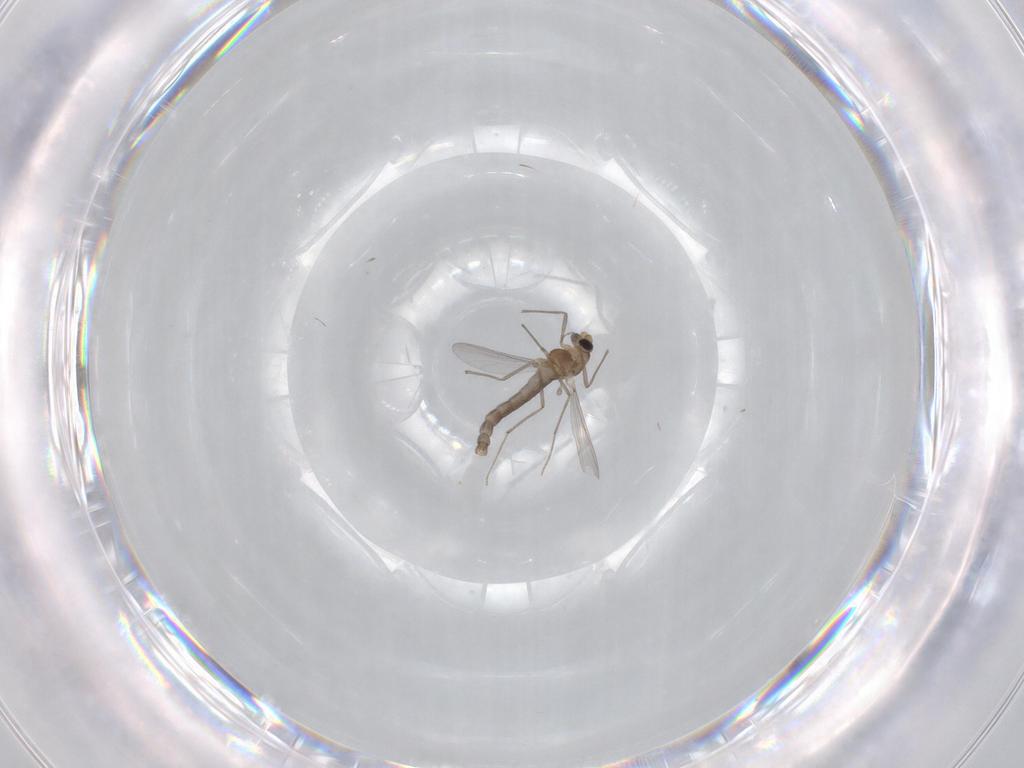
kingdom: Animalia
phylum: Arthropoda
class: Insecta
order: Diptera
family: Chironomidae
